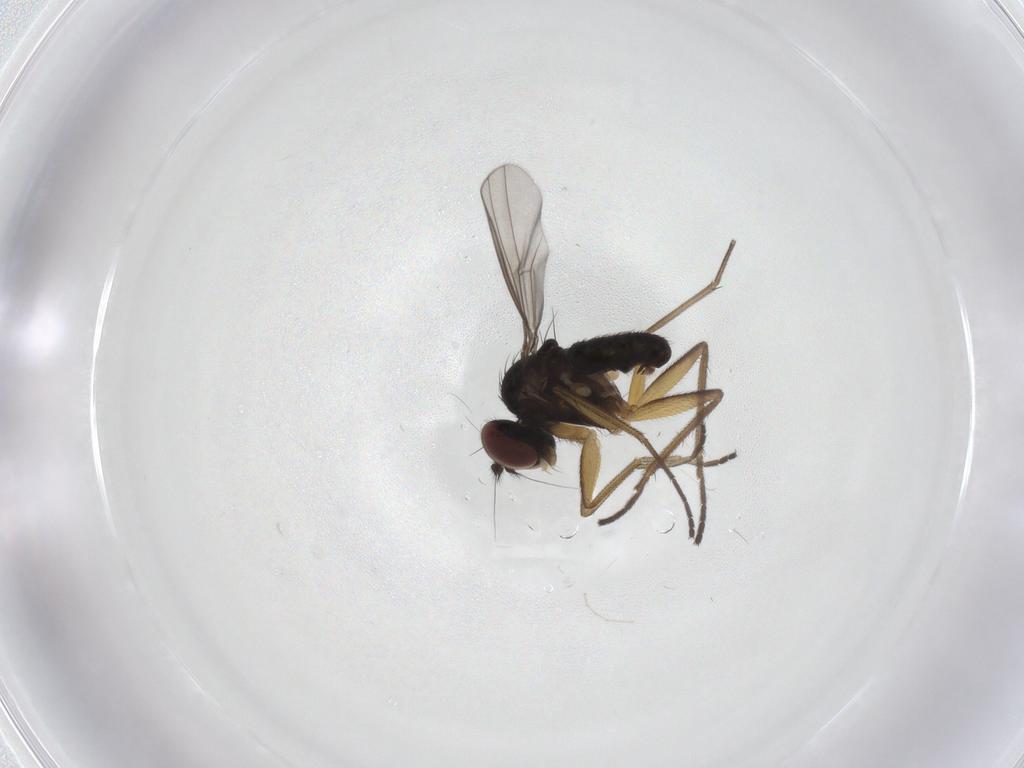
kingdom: Animalia
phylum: Arthropoda
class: Insecta
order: Diptera
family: Dolichopodidae
